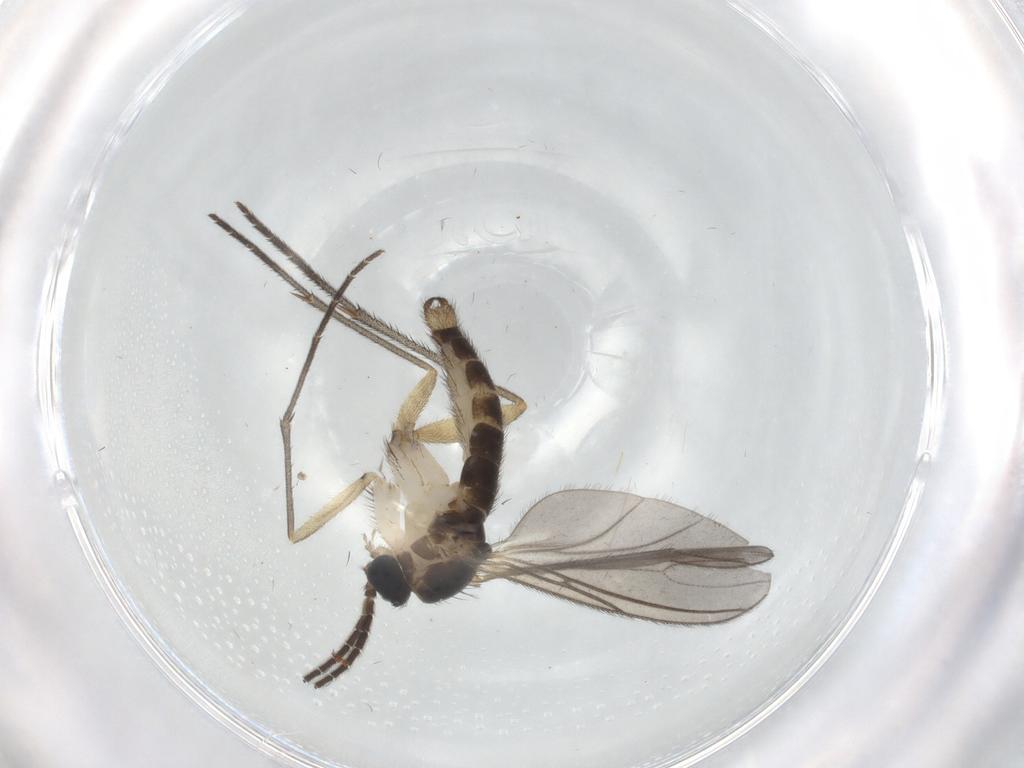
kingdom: Animalia
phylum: Arthropoda
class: Insecta
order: Diptera
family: Sciaridae
